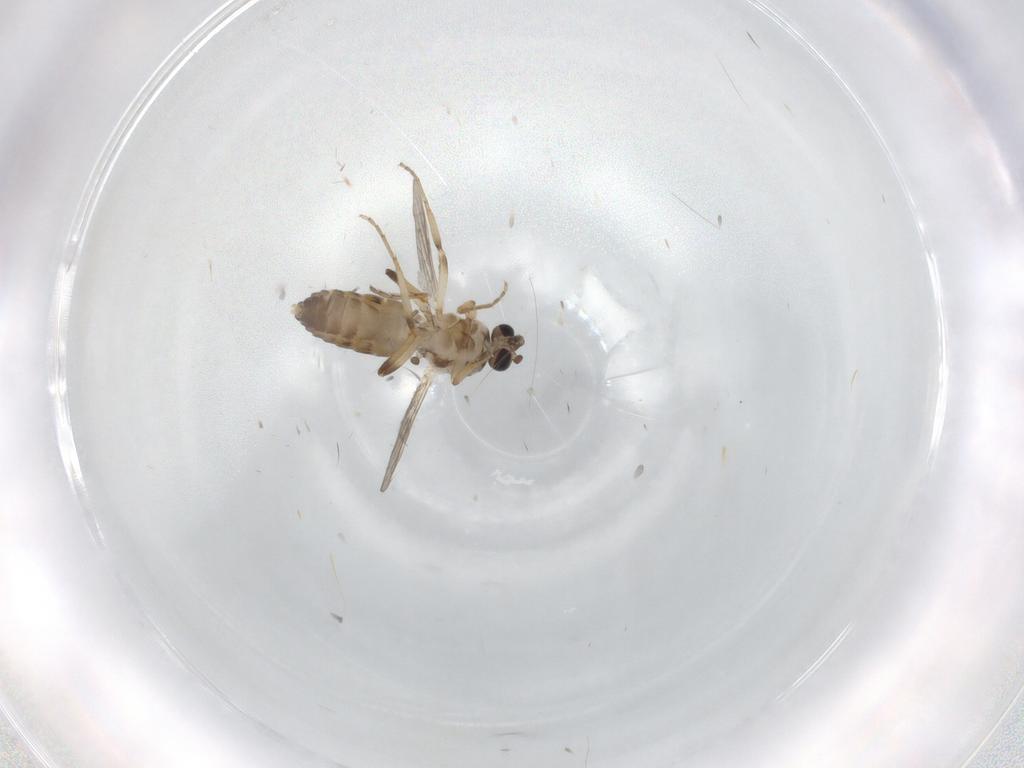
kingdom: Animalia
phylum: Arthropoda
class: Insecta
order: Diptera
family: Ceratopogonidae
